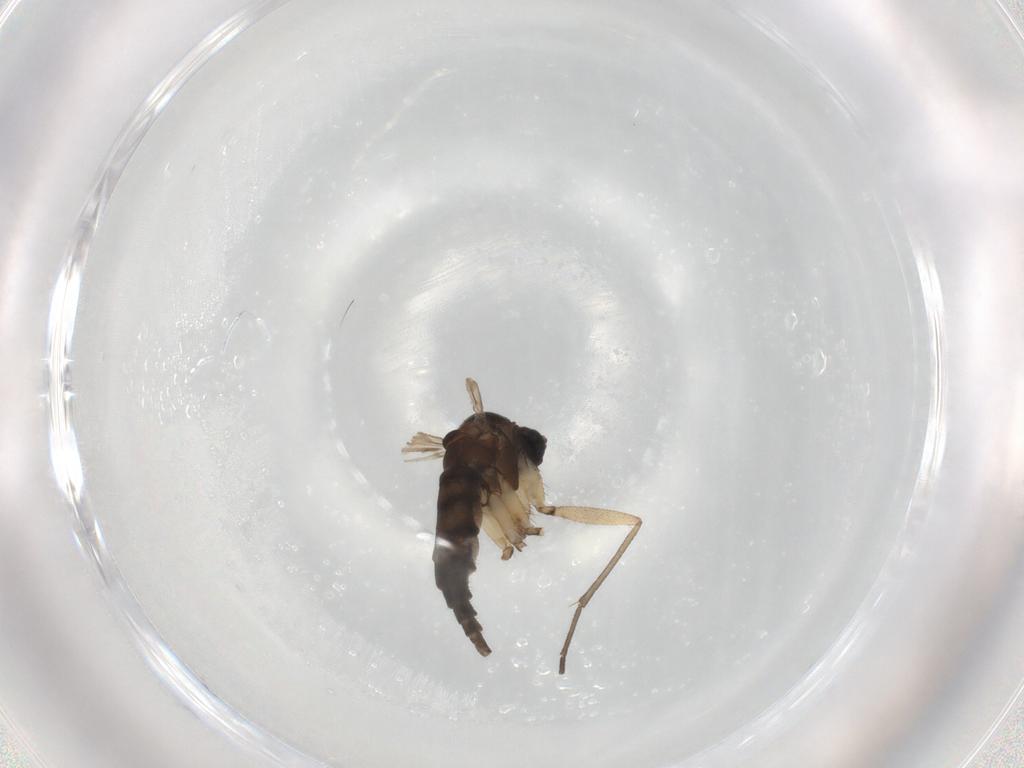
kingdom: Animalia
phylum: Arthropoda
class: Insecta
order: Diptera
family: Sciaridae
